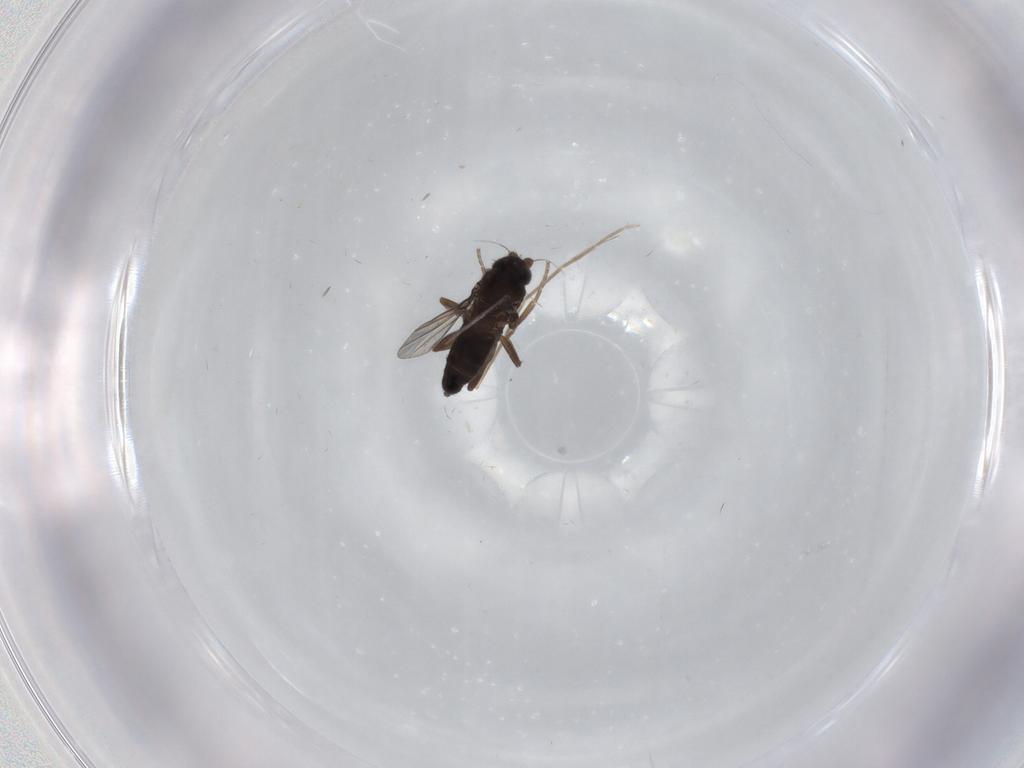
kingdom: Animalia
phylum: Arthropoda
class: Insecta
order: Diptera
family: Phoridae
